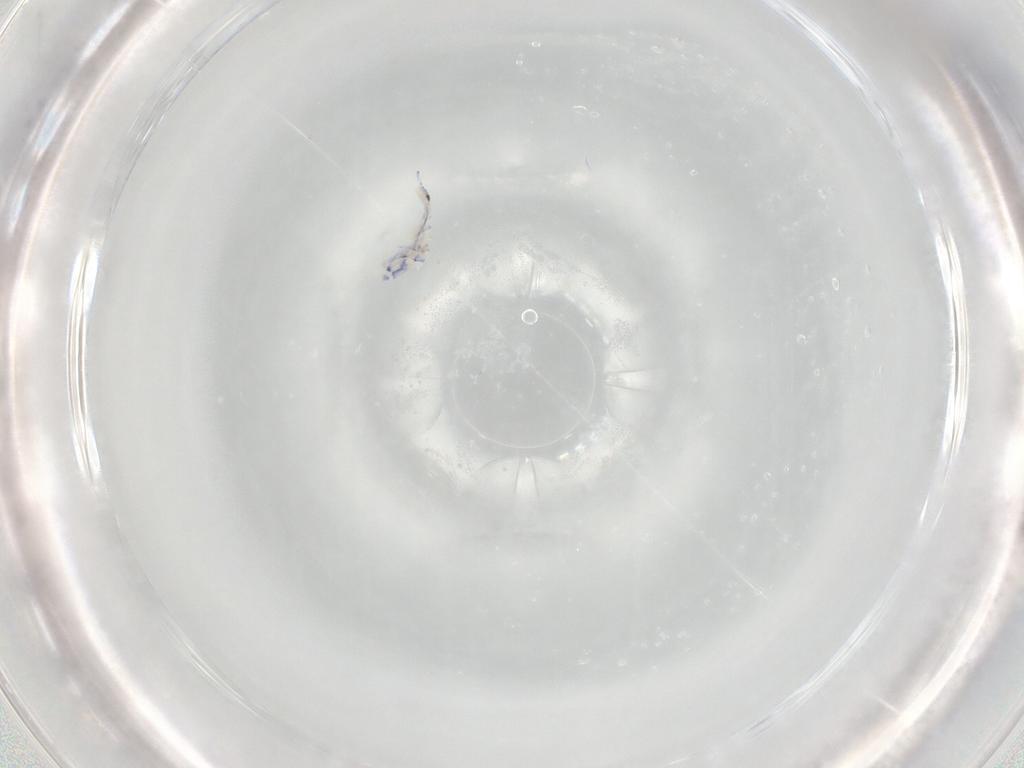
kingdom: Animalia
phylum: Arthropoda
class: Collembola
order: Entomobryomorpha
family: Entomobryidae
